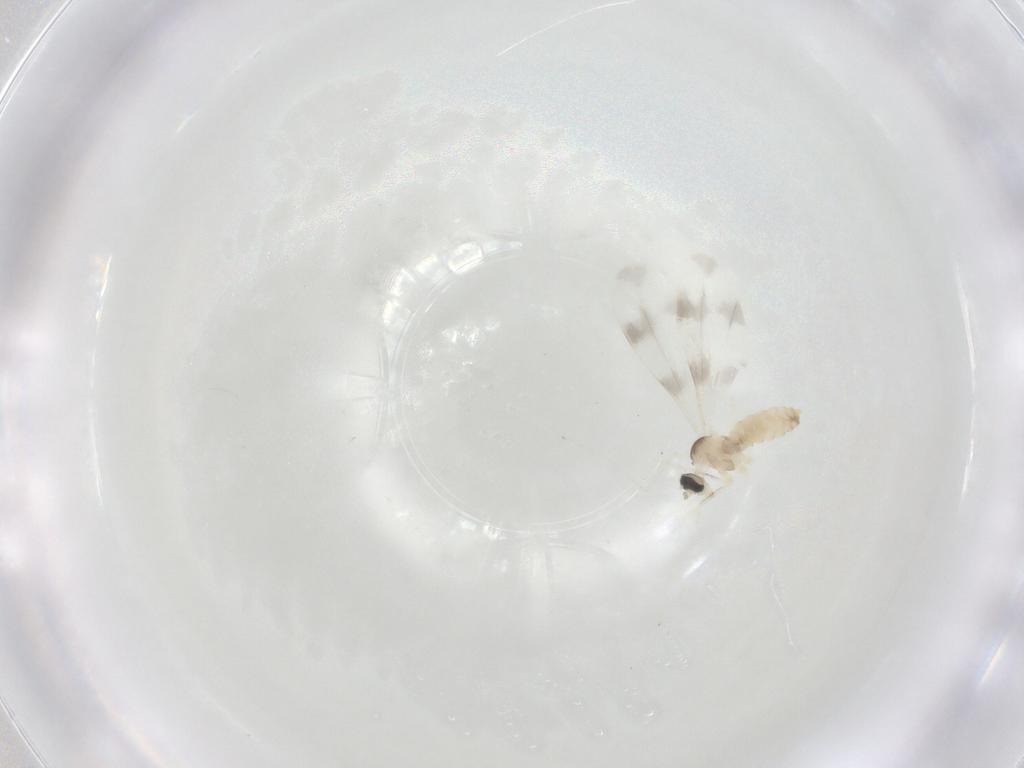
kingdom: Animalia
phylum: Arthropoda
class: Insecta
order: Diptera
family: Cecidomyiidae
